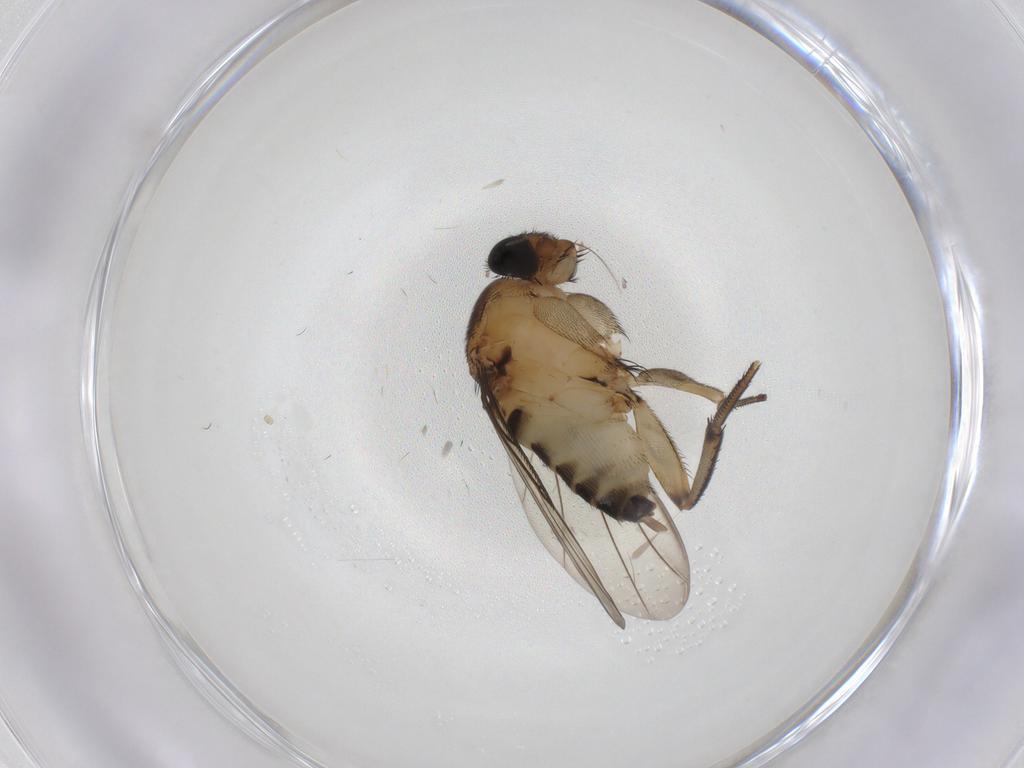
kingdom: Animalia
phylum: Arthropoda
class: Insecta
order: Diptera
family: Phoridae
